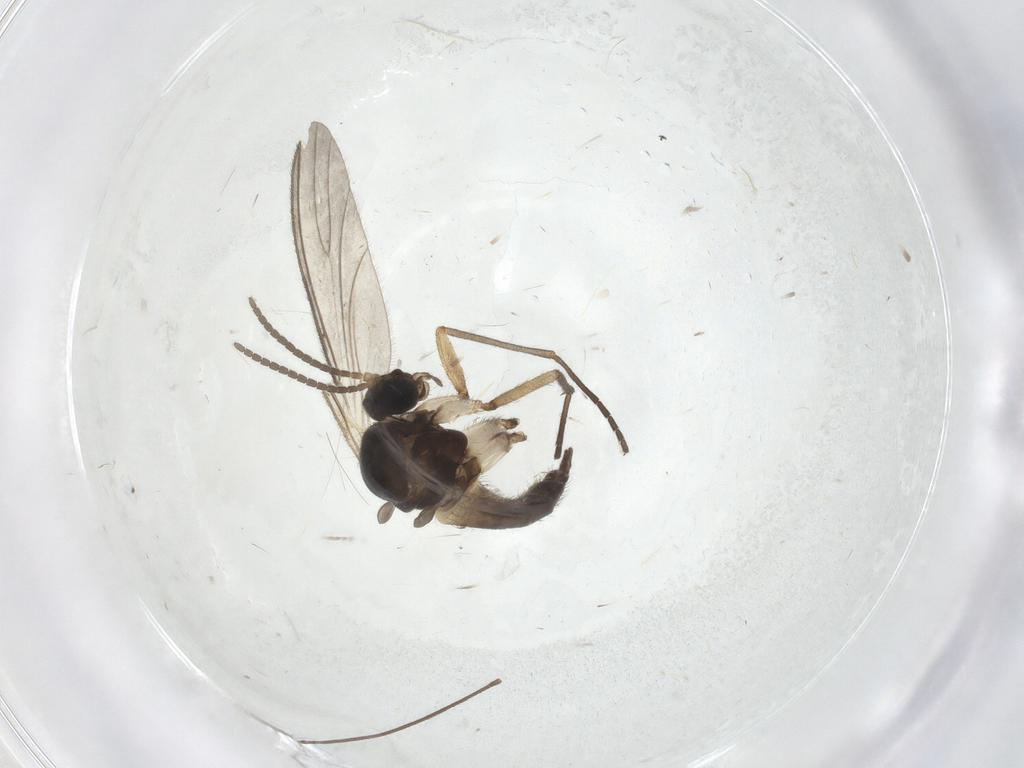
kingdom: Animalia
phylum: Arthropoda
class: Insecta
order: Diptera
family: Sciaridae
